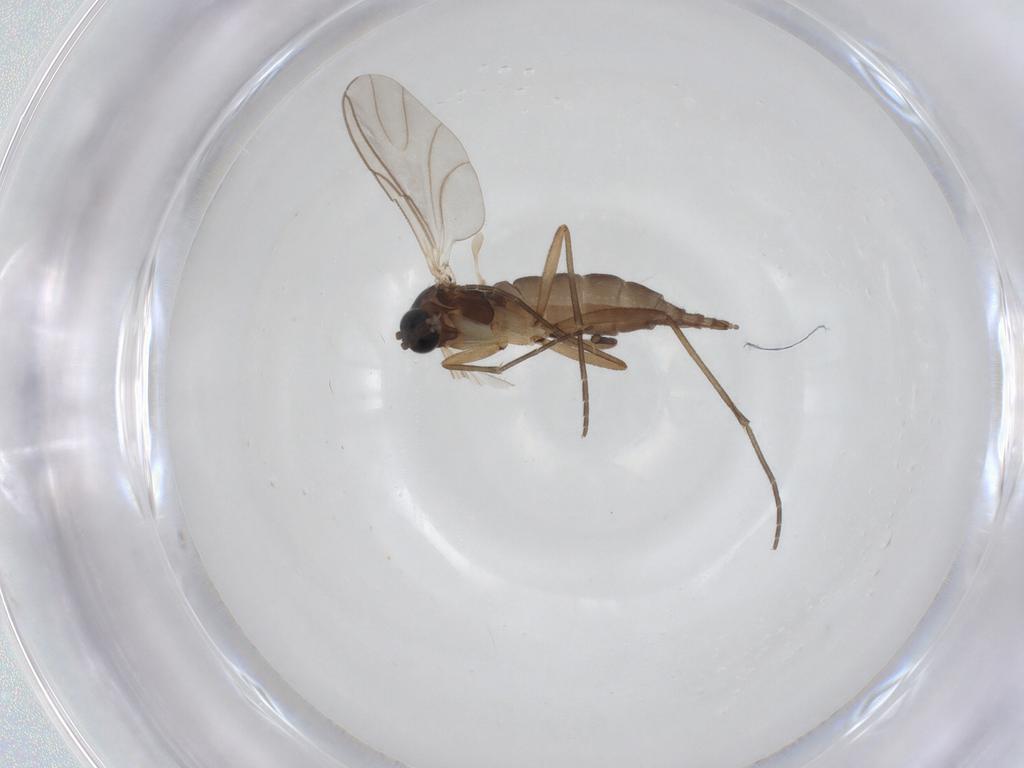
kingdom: Animalia
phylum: Arthropoda
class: Insecta
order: Diptera
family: Sciaridae
